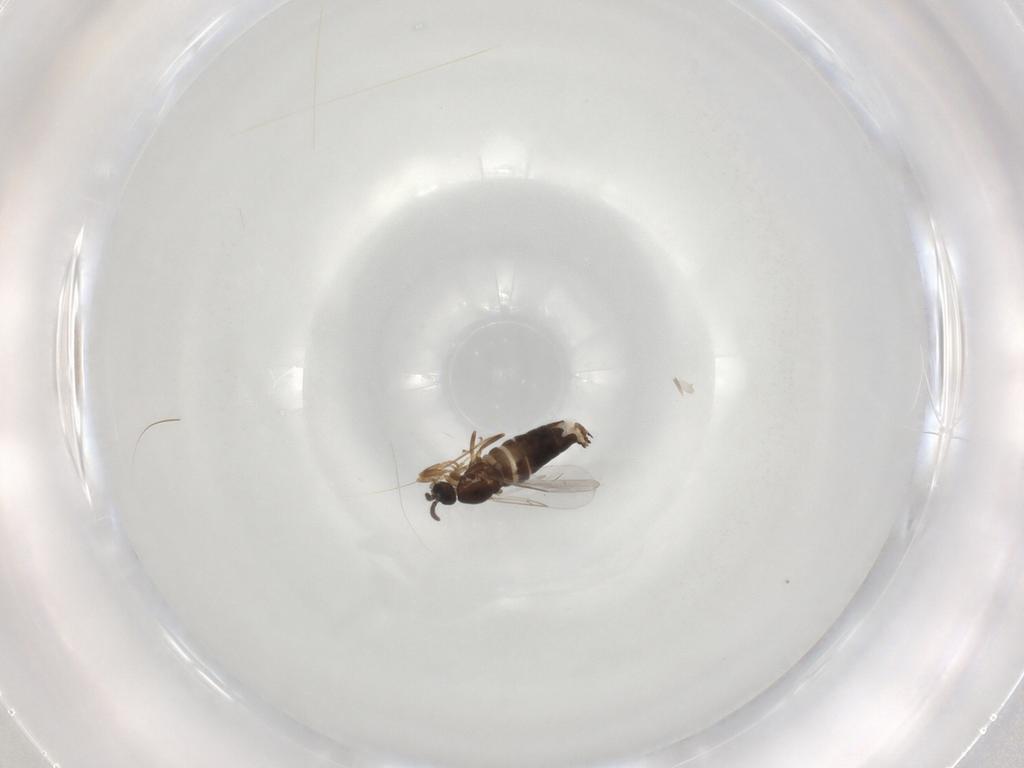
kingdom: Animalia
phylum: Arthropoda
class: Insecta
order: Diptera
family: Scatopsidae
